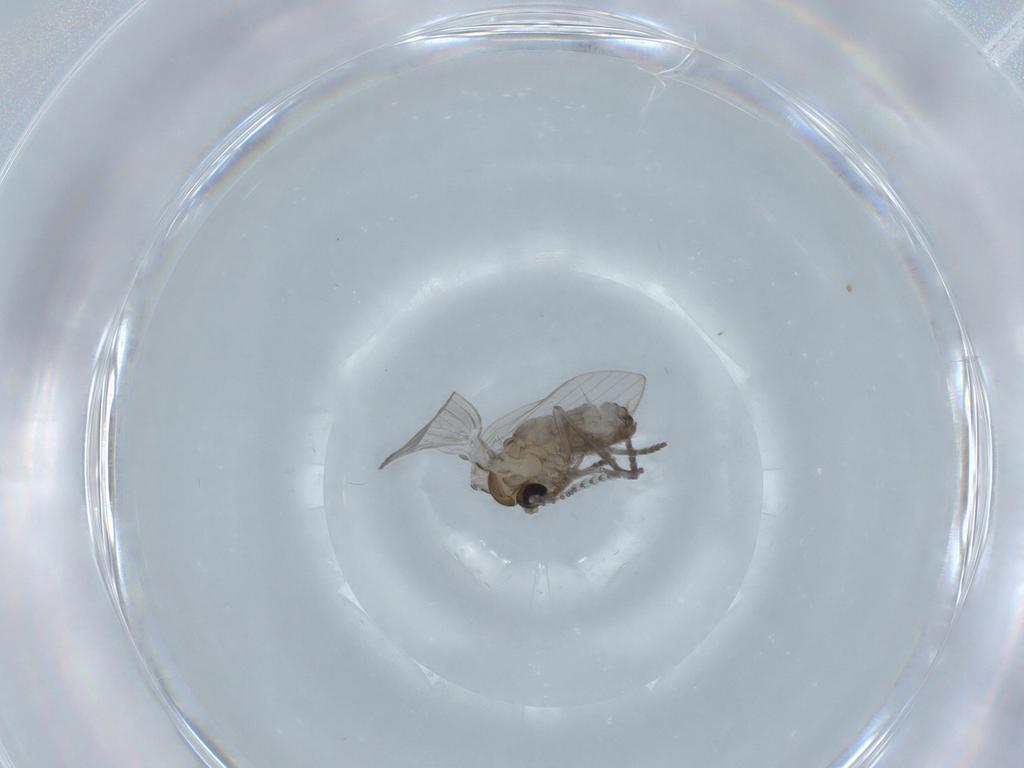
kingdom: Animalia
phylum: Arthropoda
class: Insecta
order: Diptera
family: Psychodidae
